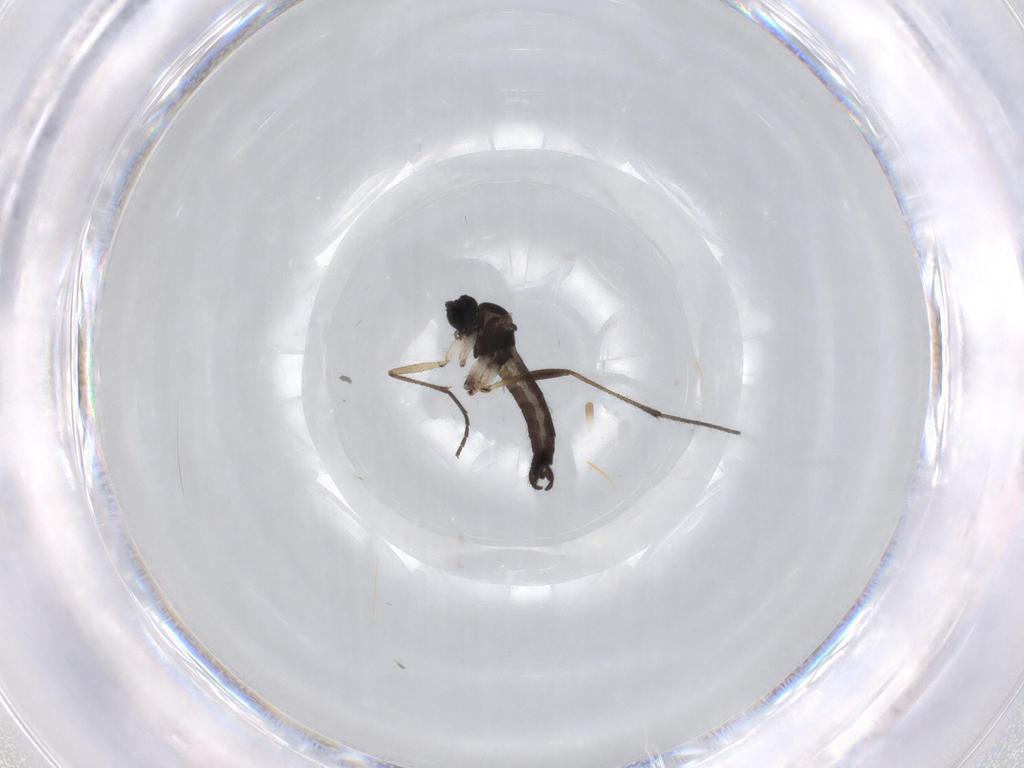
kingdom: Animalia
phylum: Arthropoda
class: Insecta
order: Diptera
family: Sciaridae
